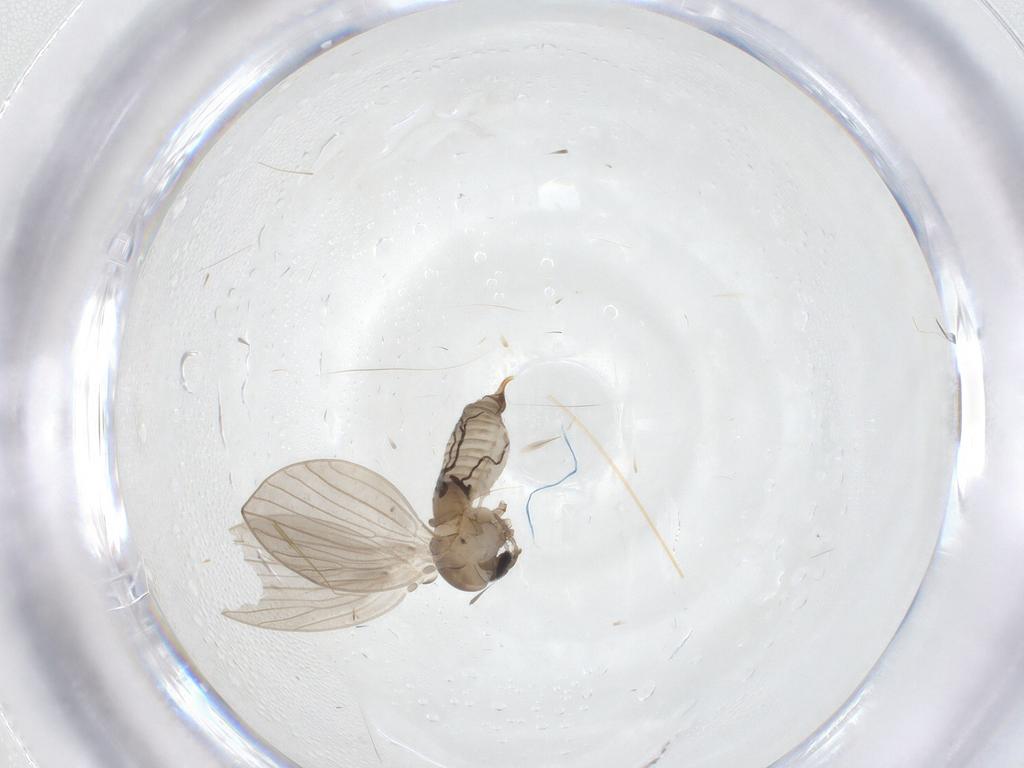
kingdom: Animalia
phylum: Arthropoda
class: Insecta
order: Diptera
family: Psychodidae
